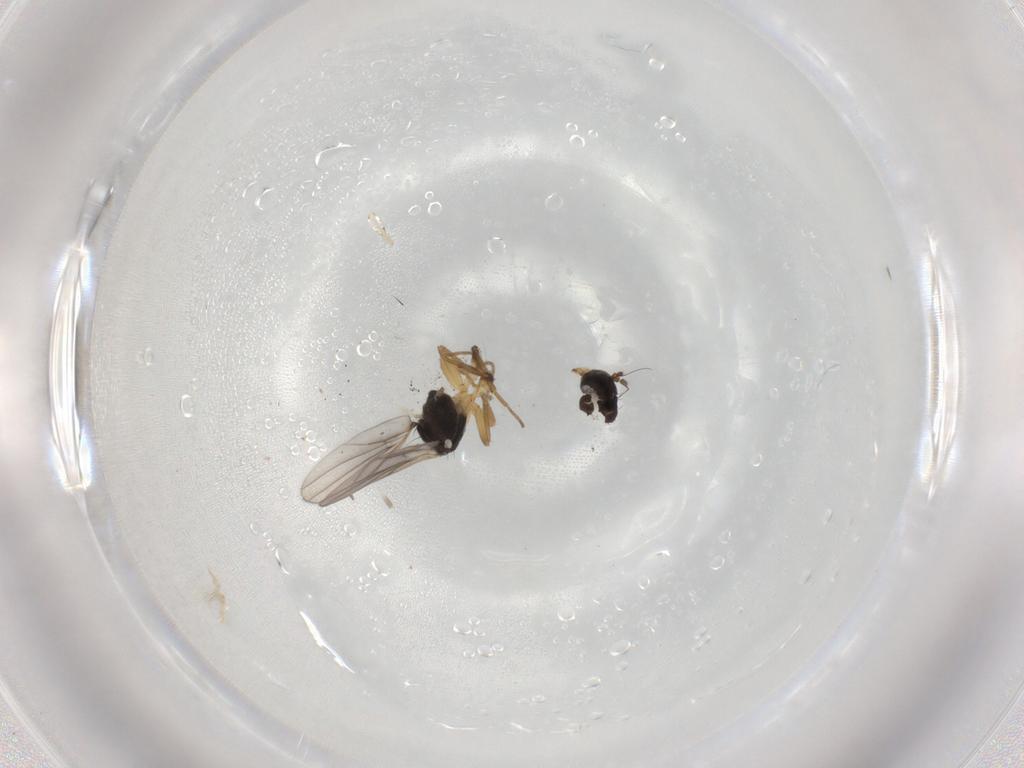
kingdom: Animalia
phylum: Arthropoda
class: Insecta
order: Diptera
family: Hybotidae
